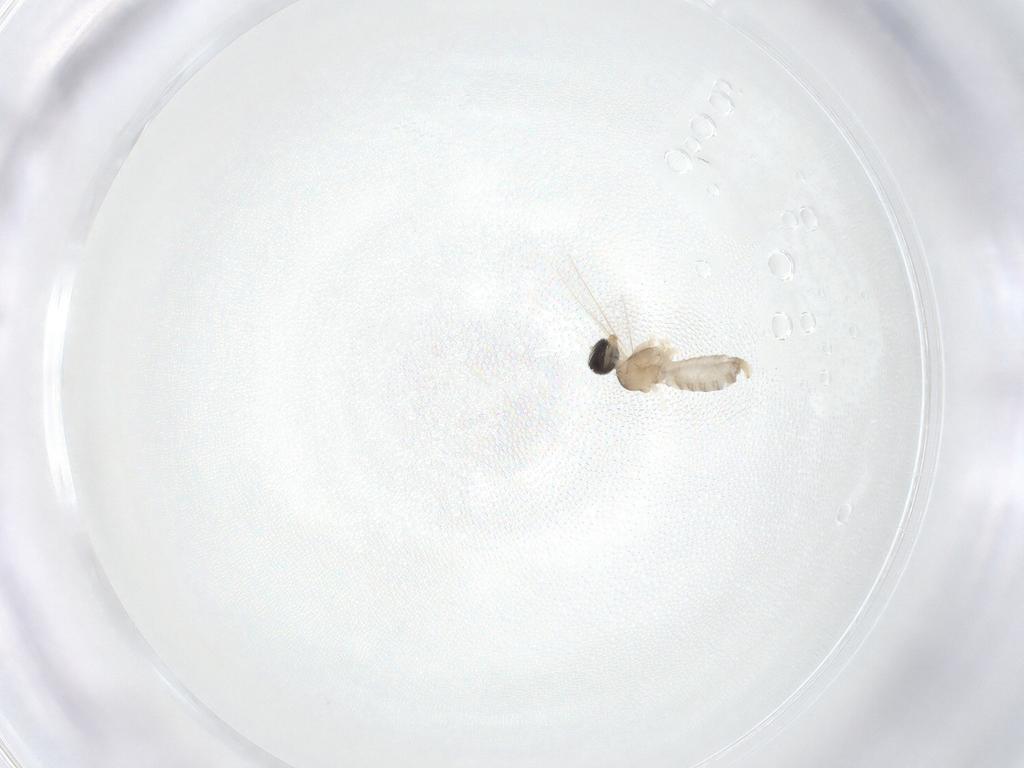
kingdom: Animalia
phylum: Arthropoda
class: Insecta
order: Diptera
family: Cecidomyiidae
